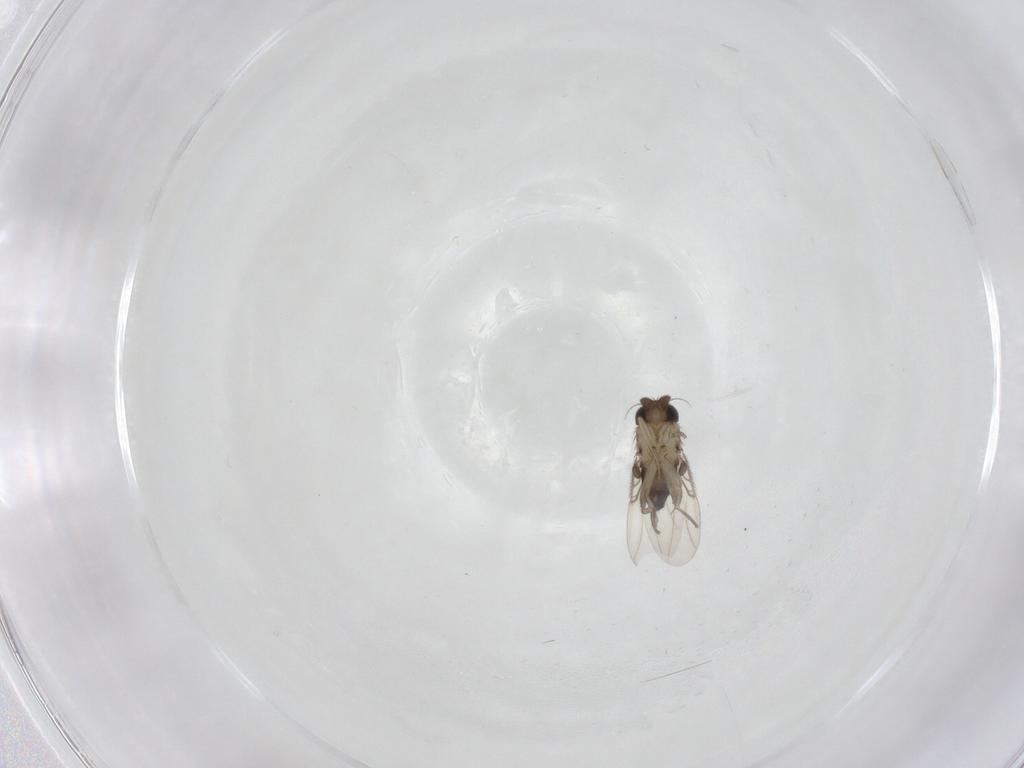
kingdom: Animalia
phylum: Arthropoda
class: Insecta
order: Diptera
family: Phoridae
